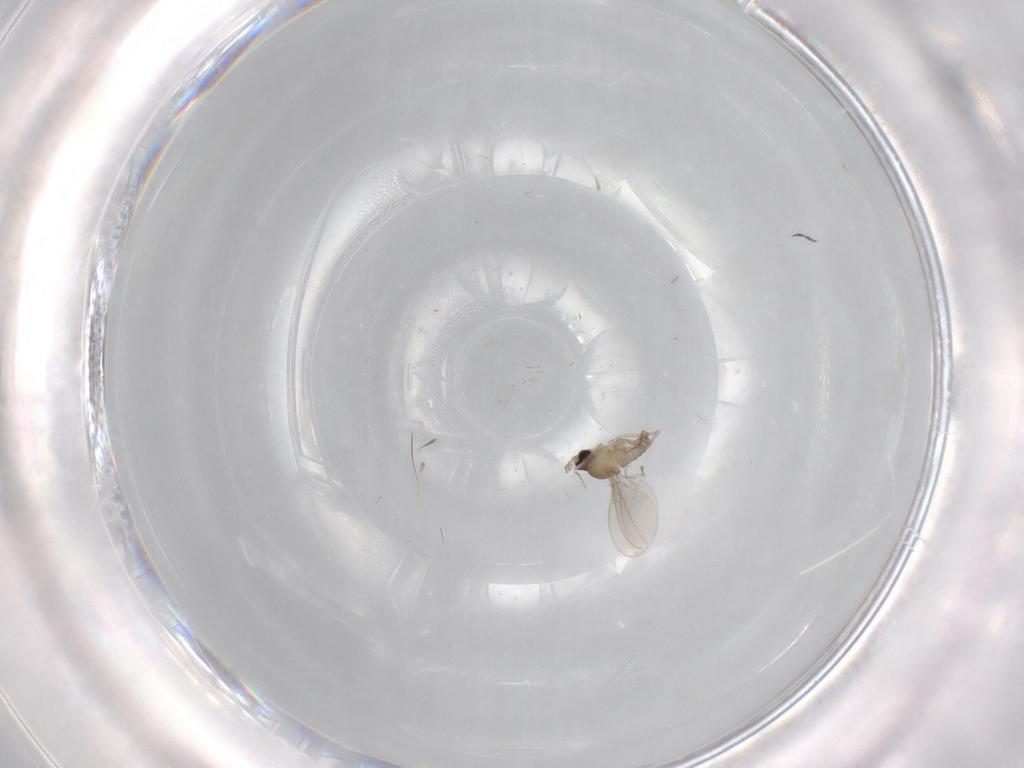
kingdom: Animalia
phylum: Arthropoda
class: Insecta
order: Diptera
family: Cecidomyiidae
